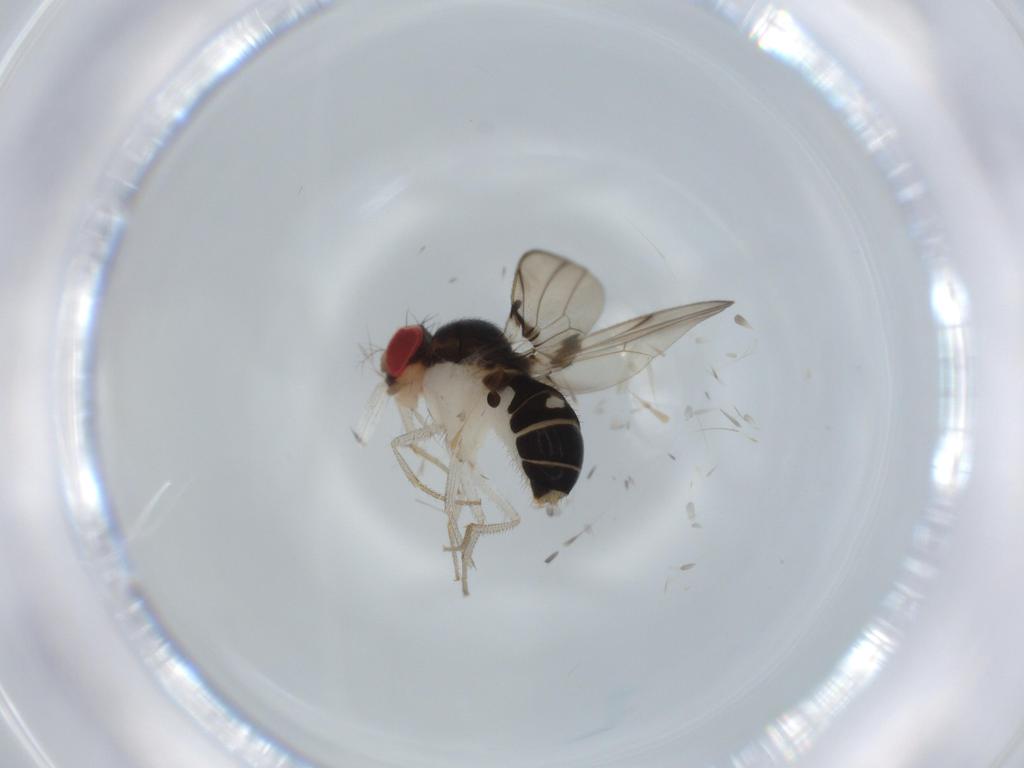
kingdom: Animalia
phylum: Arthropoda
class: Insecta
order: Diptera
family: Drosophilidae
